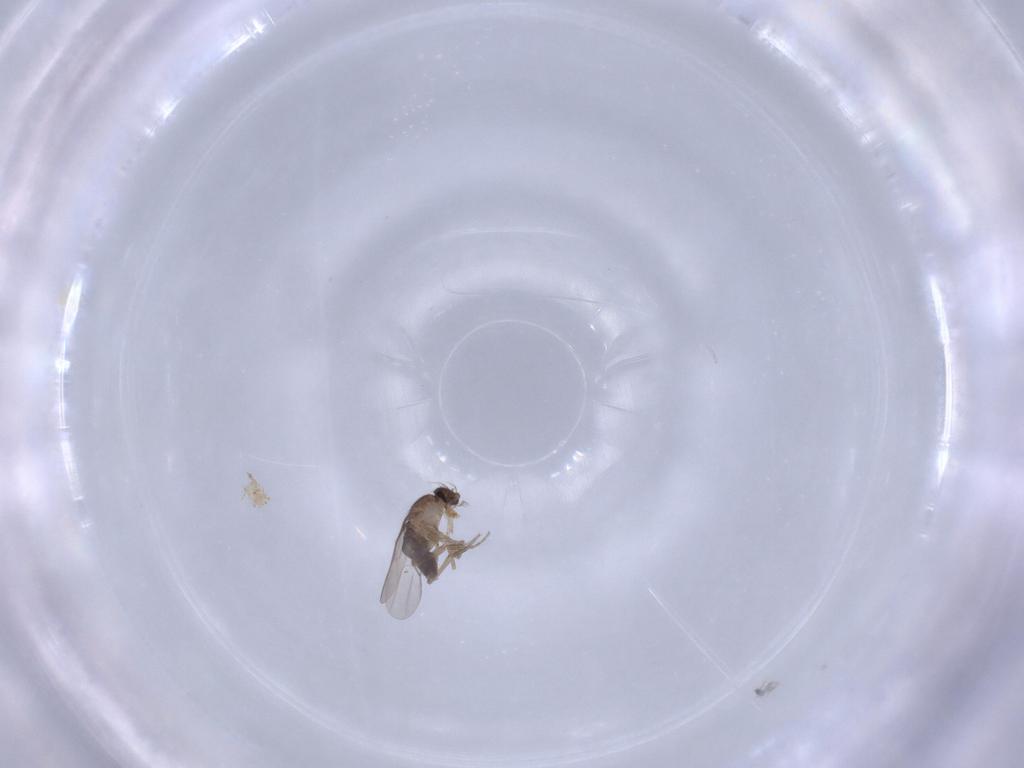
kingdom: Animalia
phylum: Arthropoda
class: Insecta
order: Diptera
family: Phoridae
